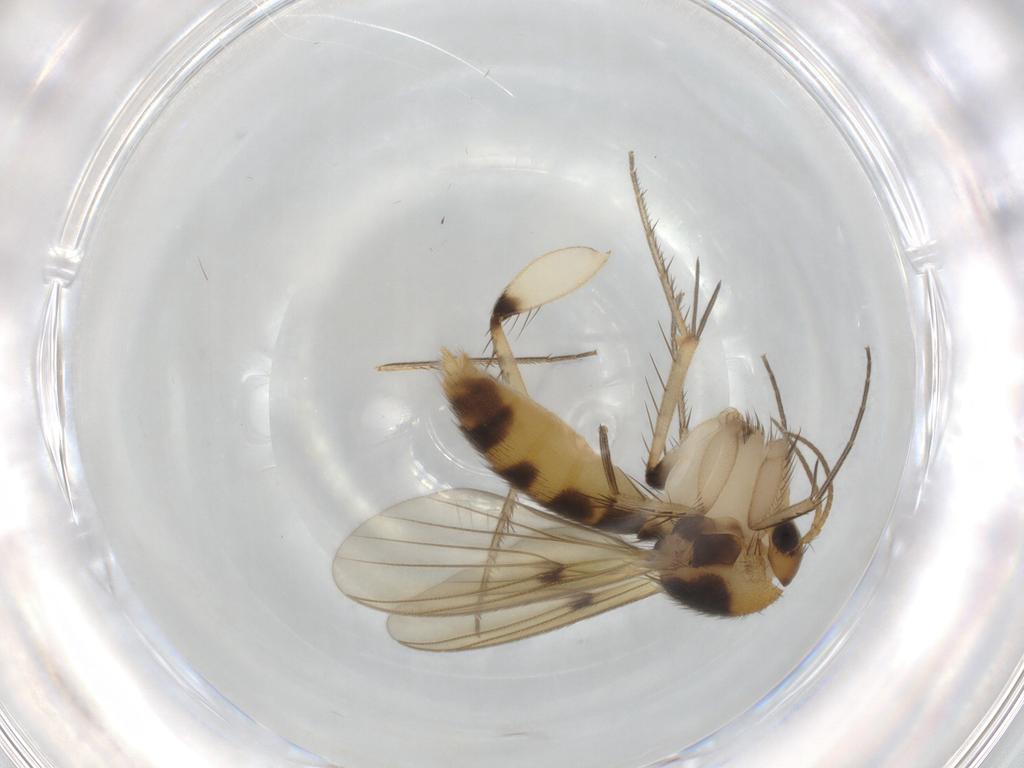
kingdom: Animalia
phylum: Arthropoda
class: Insecta
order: Diptera
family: Mycetophilidae
